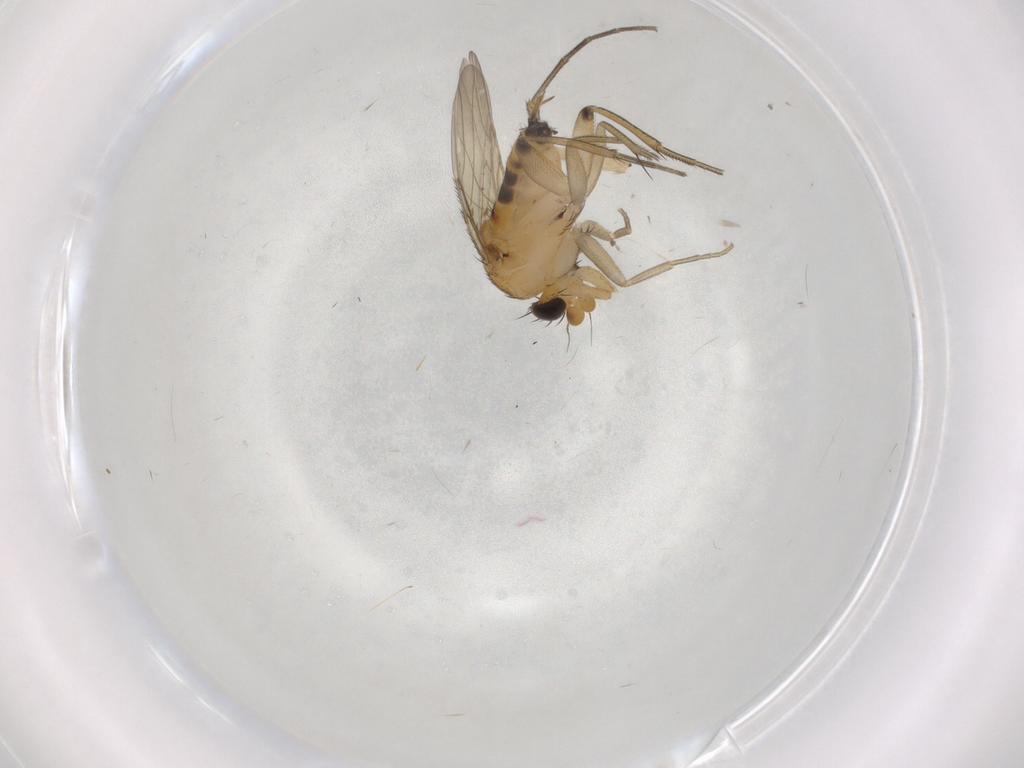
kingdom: Animalia
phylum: Arthropoda
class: Insecta
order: Diptera
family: Phoridae
